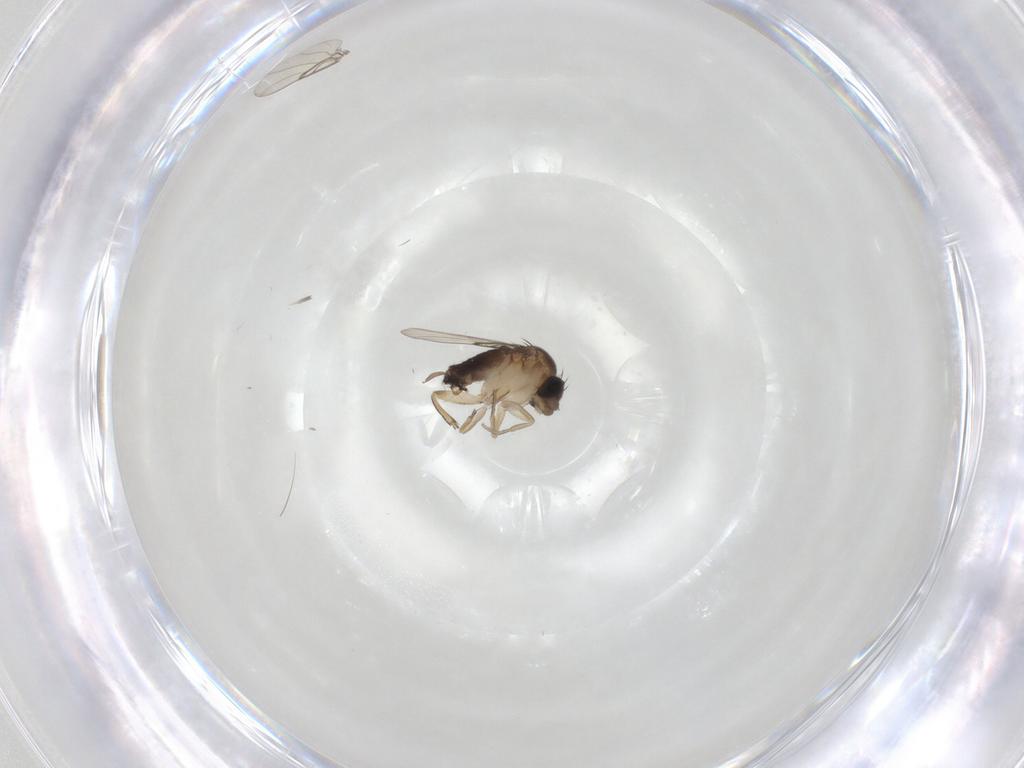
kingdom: Animalia
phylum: Arthropoda
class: Insecta
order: Diptera
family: Phoridae
